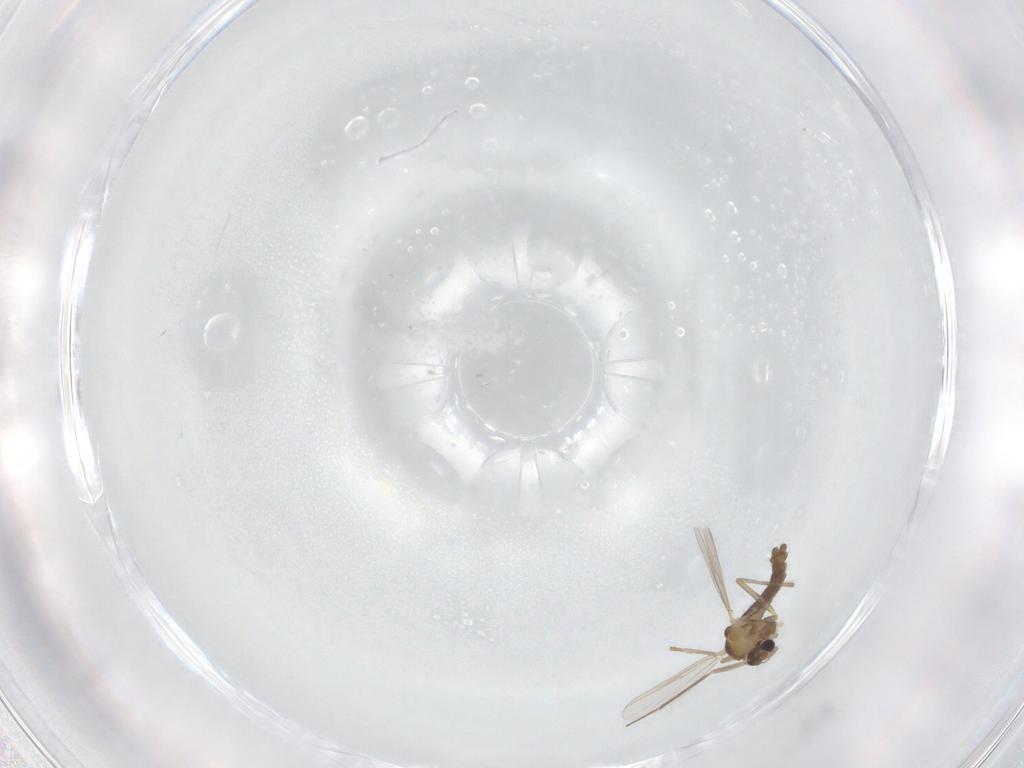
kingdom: Animalia
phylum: Arthropoda
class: Insecta
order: Diptera
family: Chironomidae
